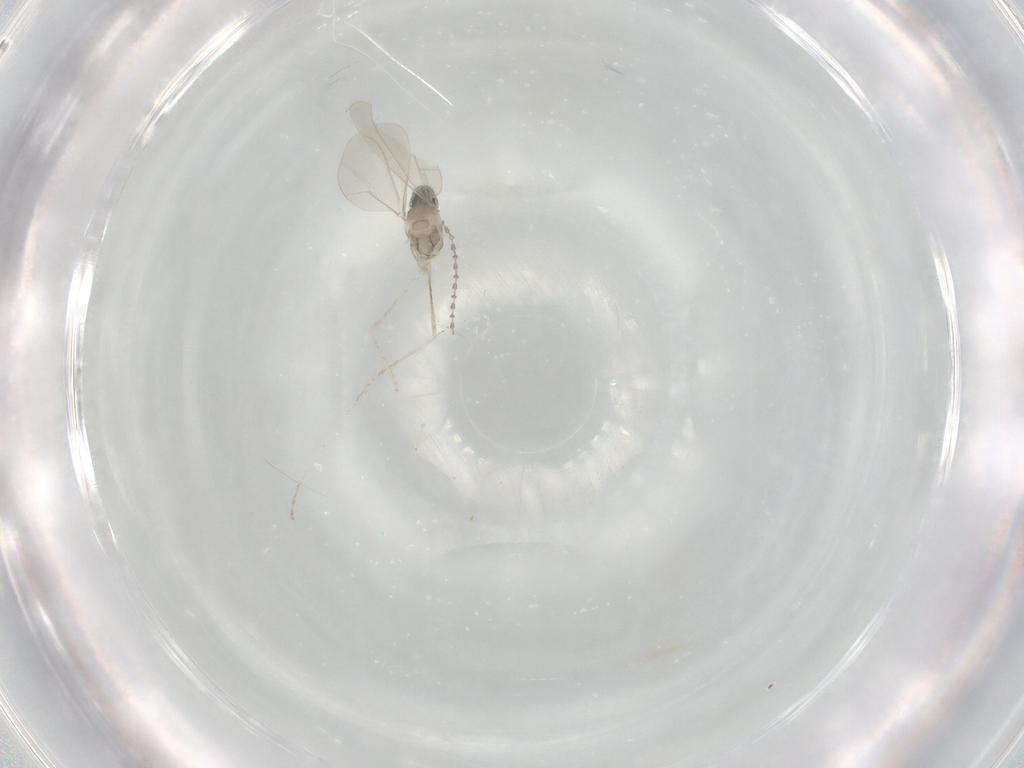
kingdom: Animalia
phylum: Arthropoda
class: Insecta
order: Diptera
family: Cecidomyiidae
